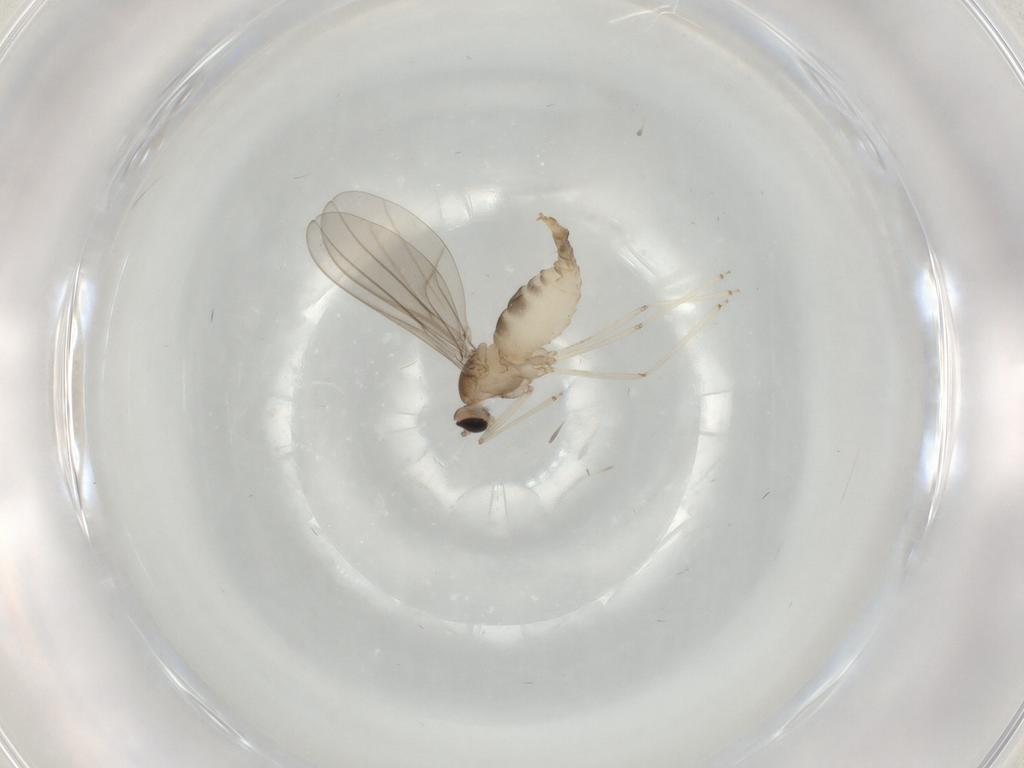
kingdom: Animalia
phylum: Arthropoda
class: Insecta
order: Diptera
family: Cecidomyiidae
